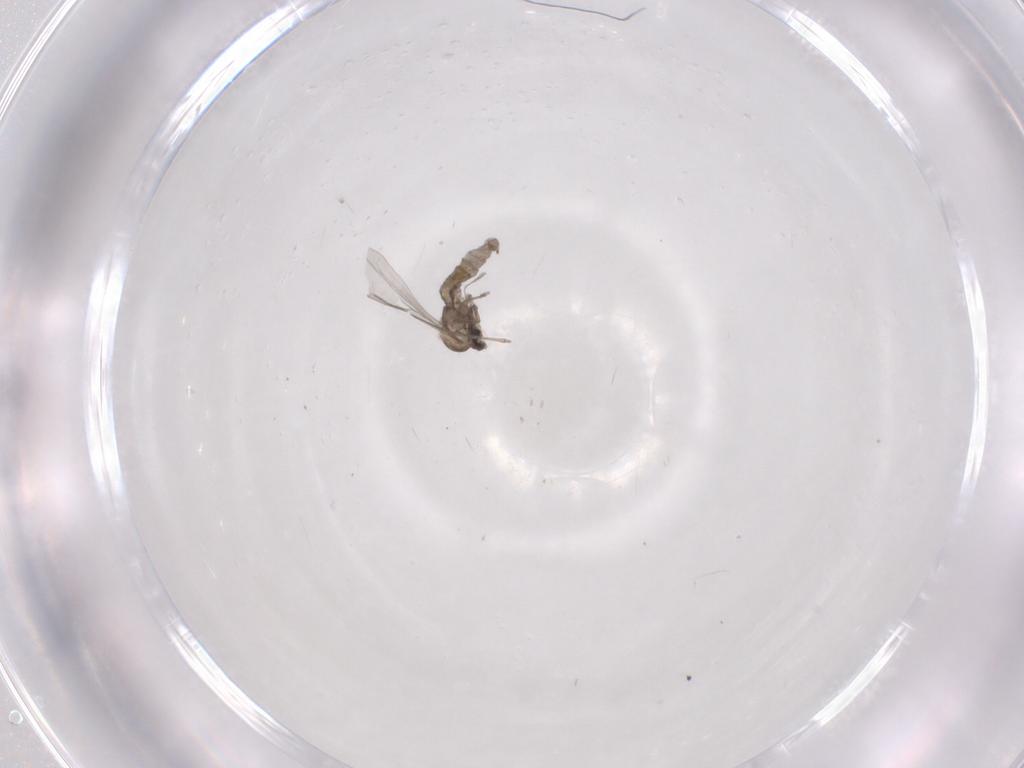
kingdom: Animalia
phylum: Arthropoda
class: Insecta
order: Diptera
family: Cecidomyiidae
